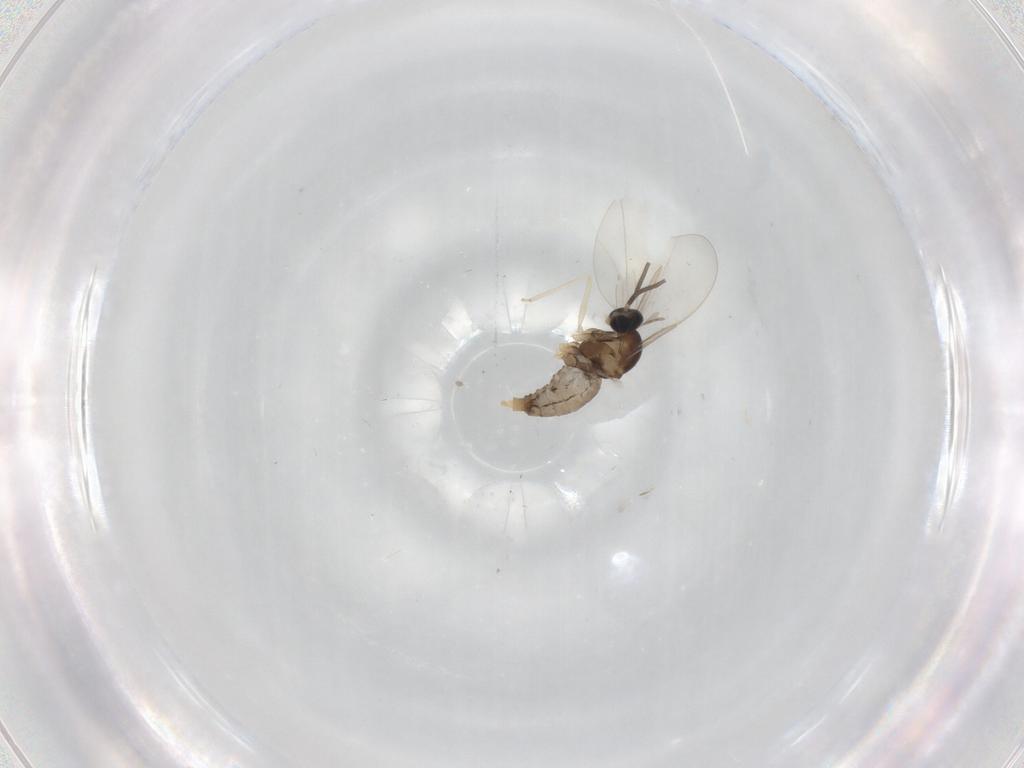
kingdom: Animalia
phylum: Arthropoda
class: Insecta
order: Diptera
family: Cecidomyiidae
